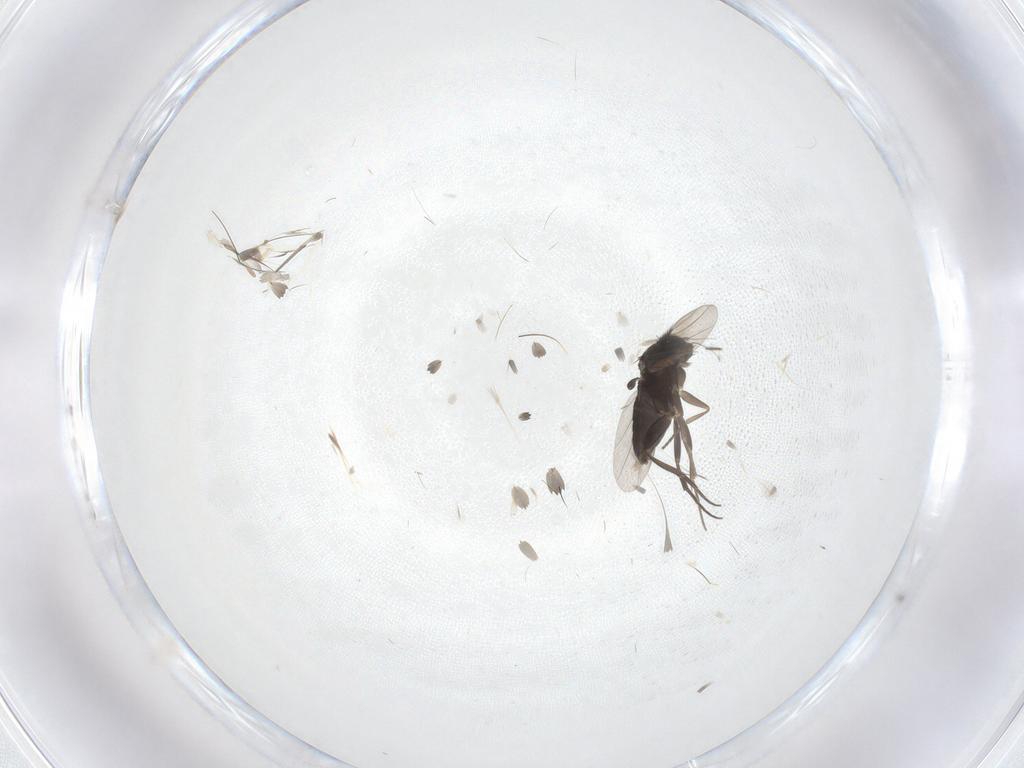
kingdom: Animalia
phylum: Arthropoda
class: Insecta
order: Diptera
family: Phoridae
